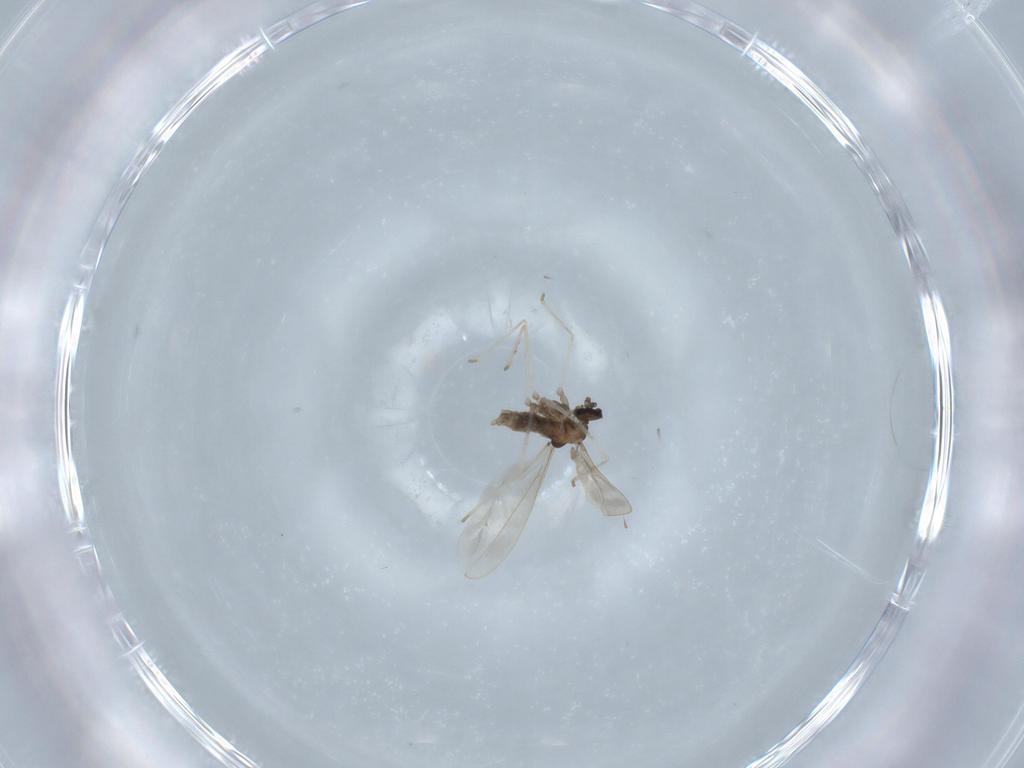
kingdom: Animalia
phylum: Arthropoda
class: Insecta
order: Diptera
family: Cecidomyiidae
